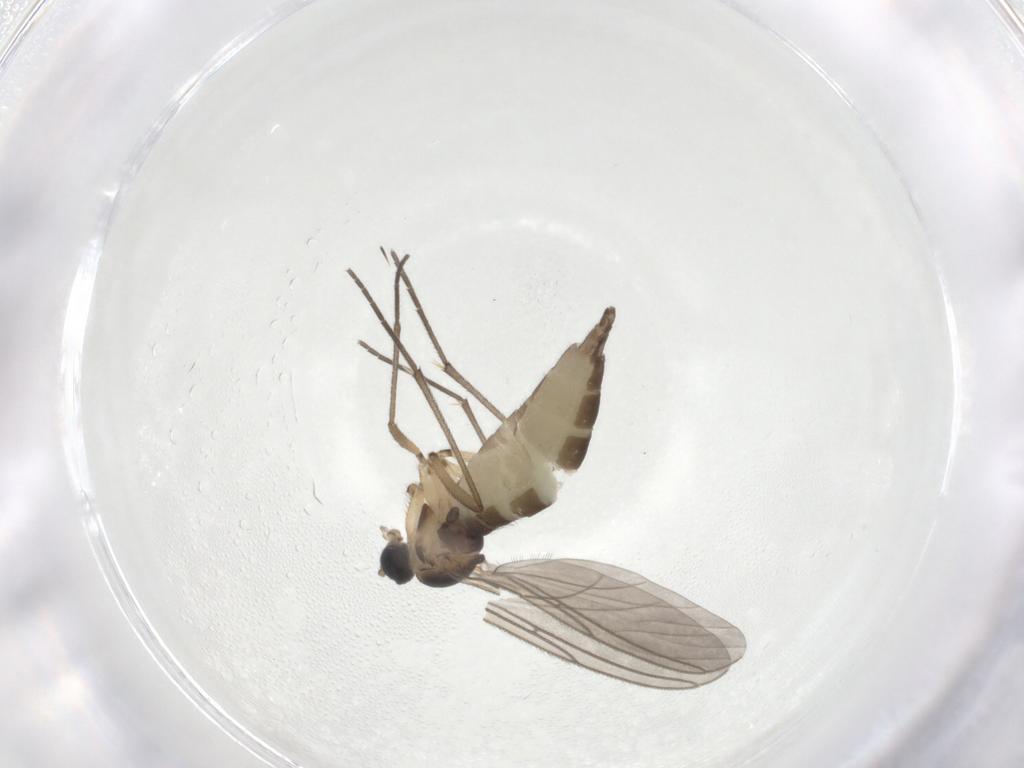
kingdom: Animalia
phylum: Arthropoda
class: Insecta
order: Diptera
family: Sciaridae
